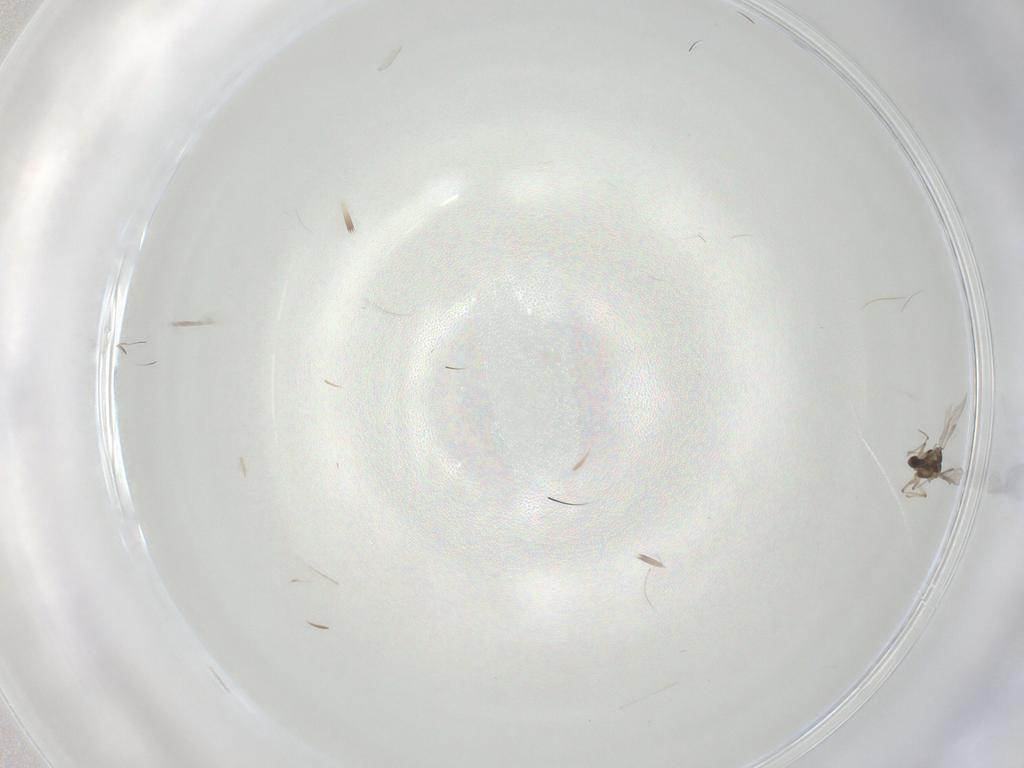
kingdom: Animalia
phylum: Arthropoda
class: Insecta
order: Diptera
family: Chironomidae
